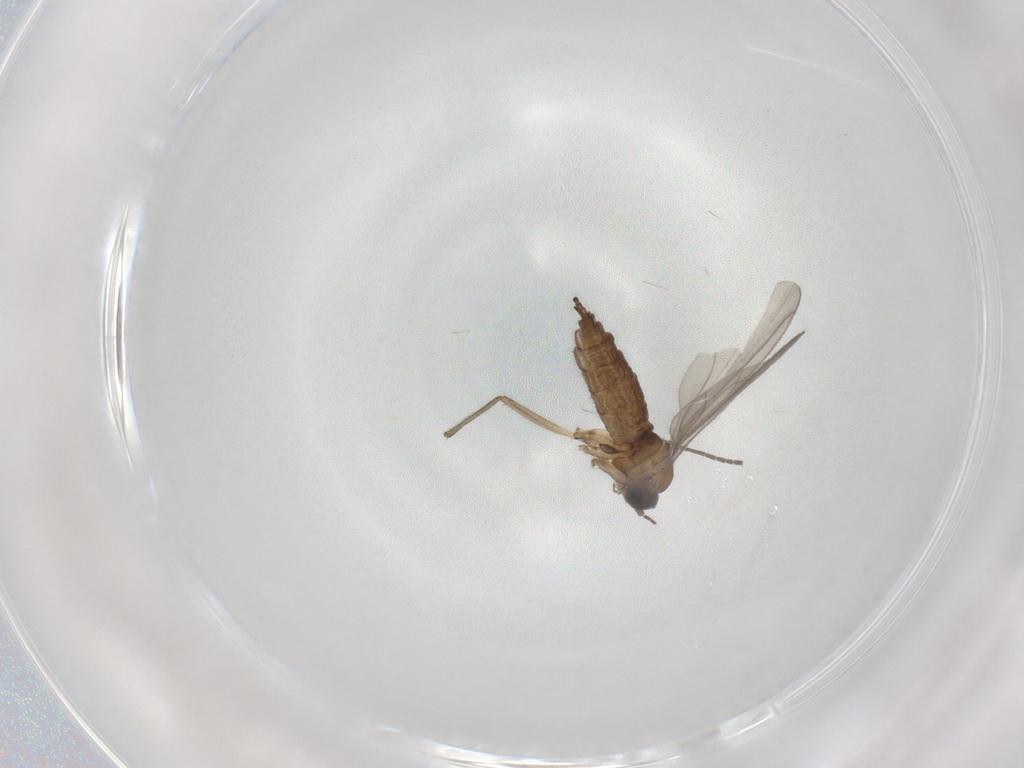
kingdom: Animalia
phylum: Arthropoda
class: Insecta
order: Diptera
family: Sciaridae
